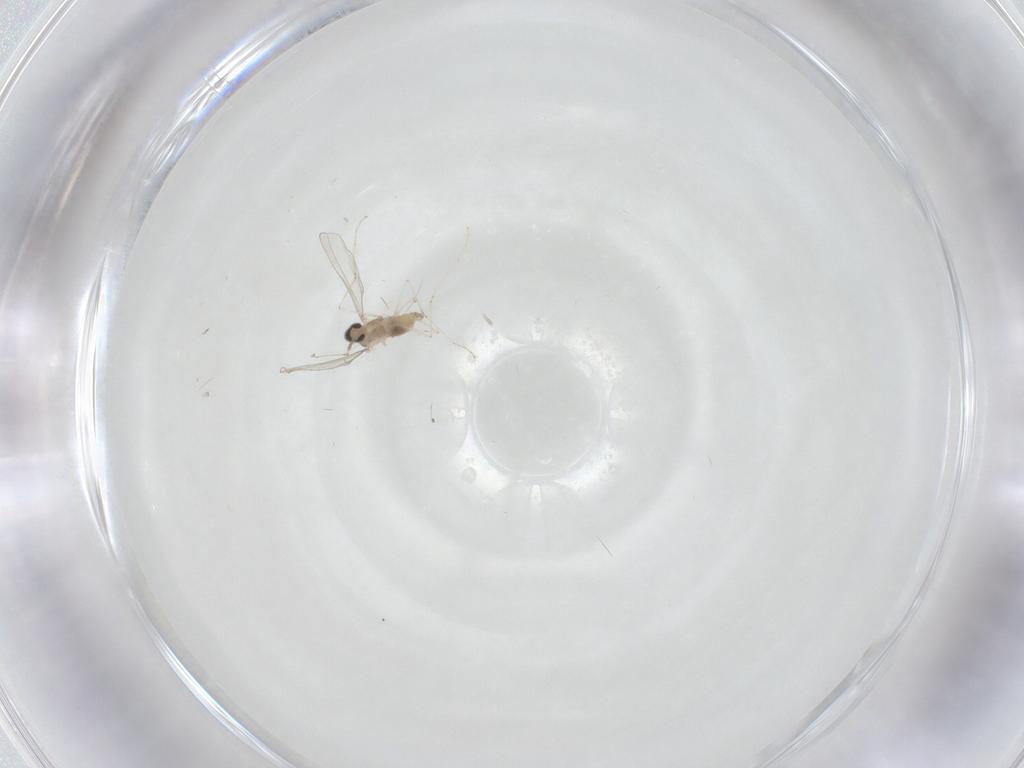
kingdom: Animalia
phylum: Arthropoda
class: Insecta
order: Diptera
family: Cecidomyiidae
